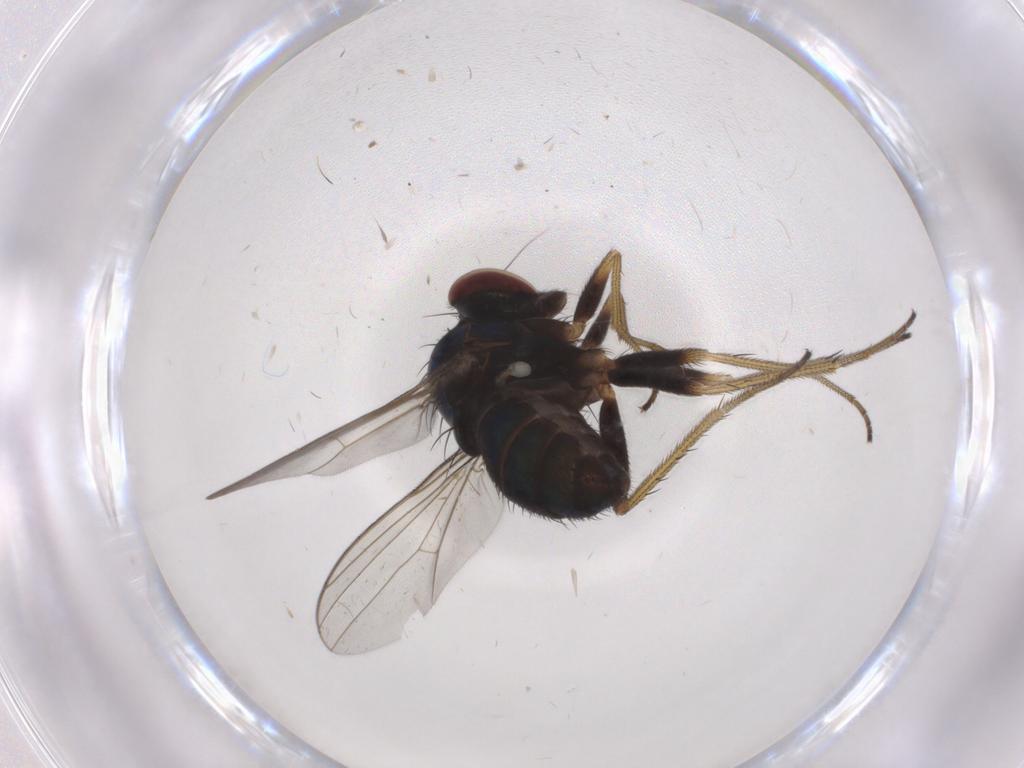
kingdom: Animalia
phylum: Arthropoda
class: Insecta
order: Diptera
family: Dolichopodidae
